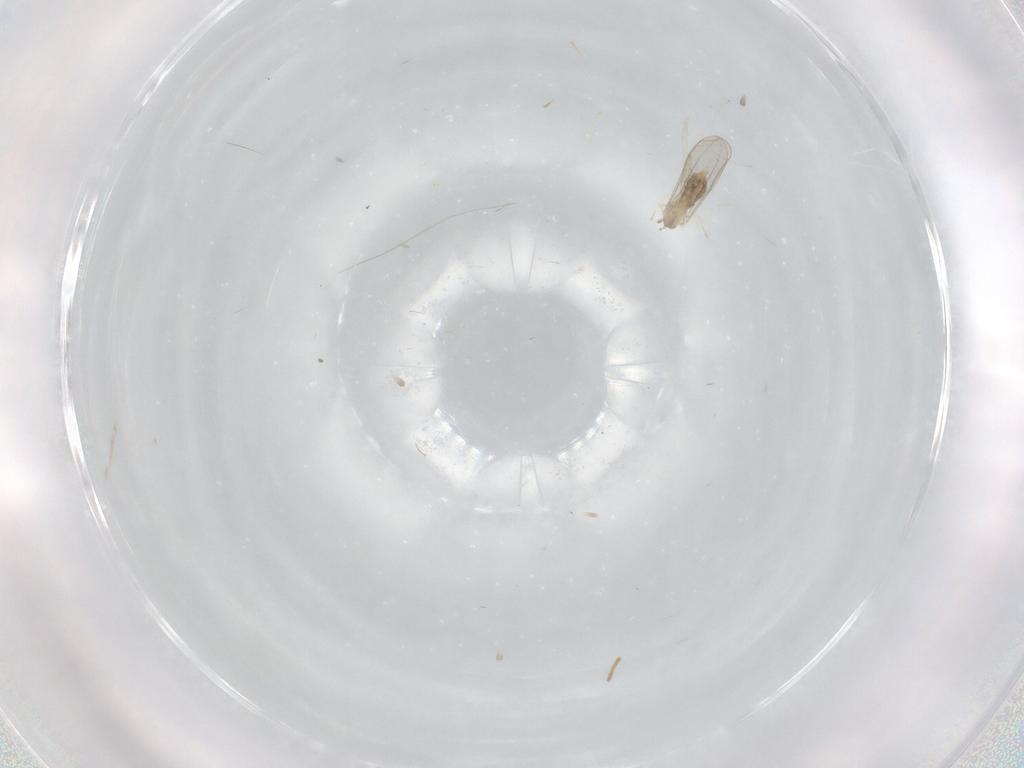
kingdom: Animalia
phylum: Arthropoda
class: Insecta
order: Diptera
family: Cecidomyiidae
